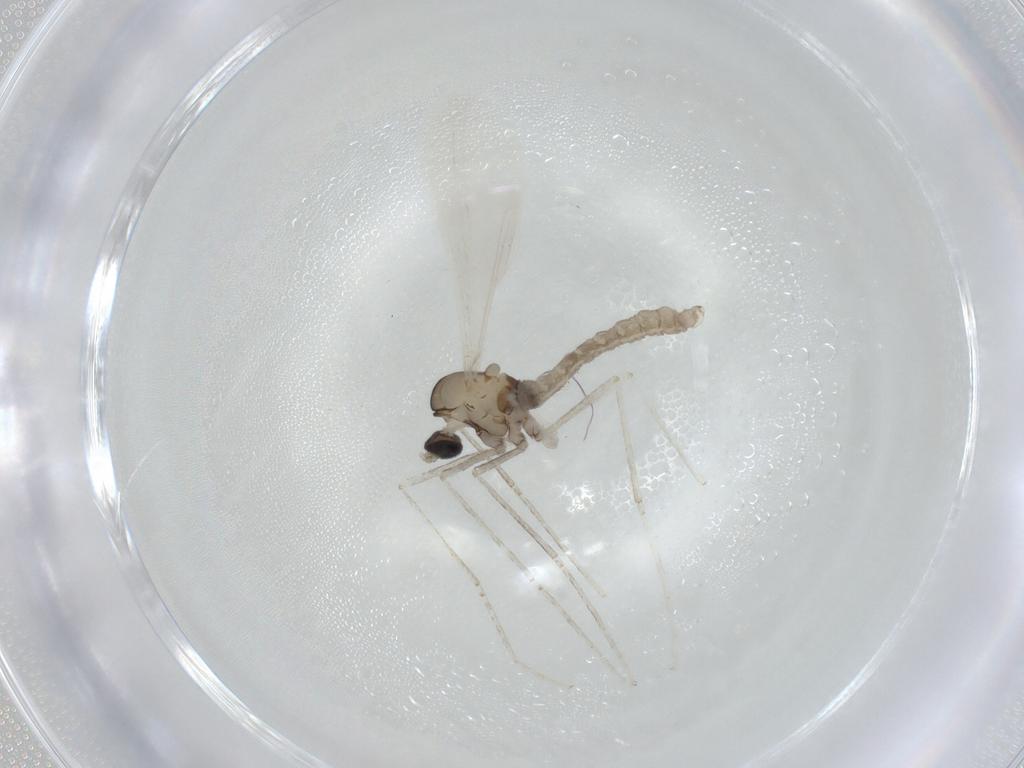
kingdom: Animalia
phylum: Arthropoda
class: Insecta
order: Diptera
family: Cecidomyiidae
